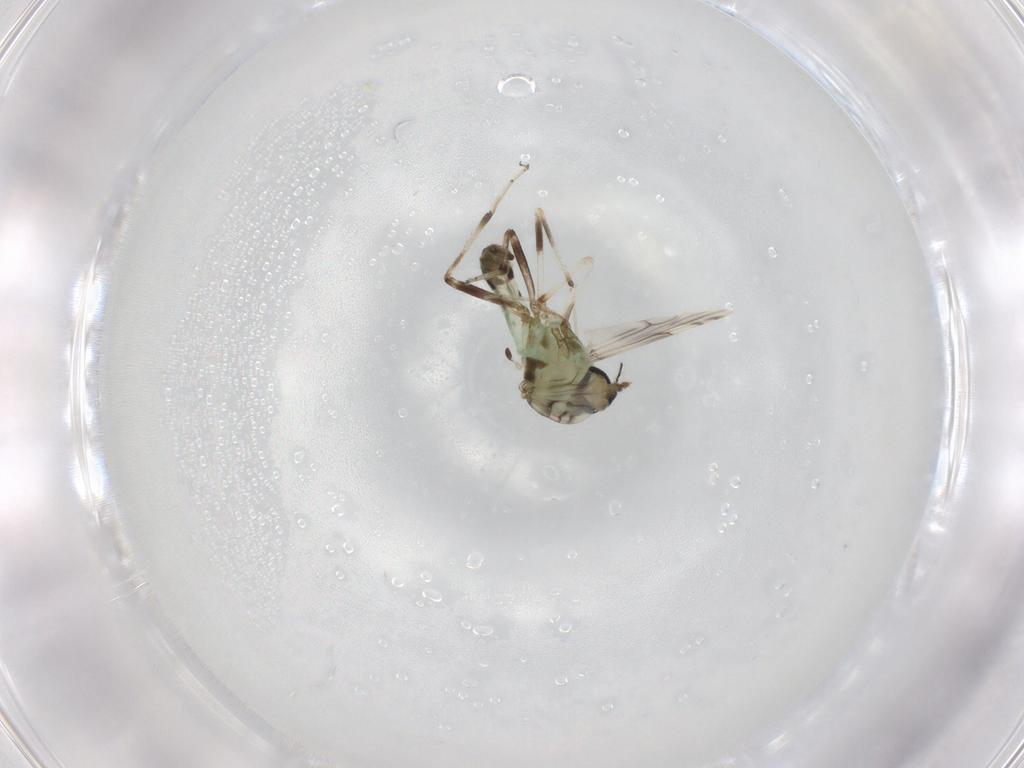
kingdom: Animalia
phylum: Arthropoda
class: Insecta
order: Diptera
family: Ceratopogonidae
